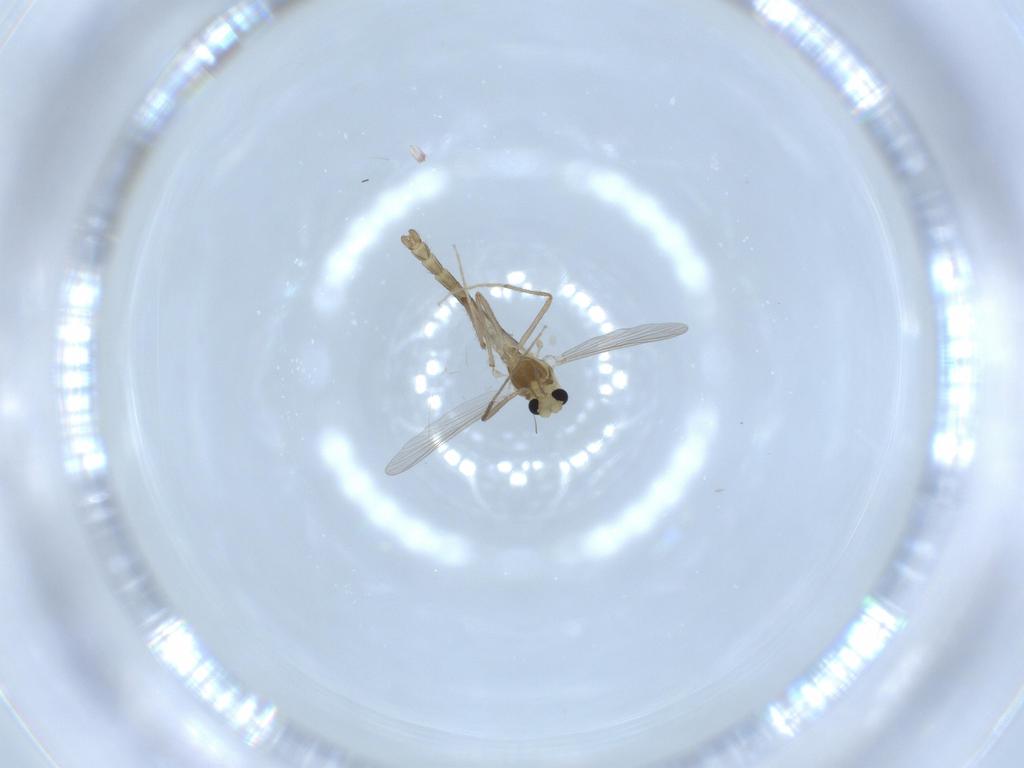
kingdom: Animalia
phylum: Arthropoda
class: Insecta
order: Diptera
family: Chironomidae
